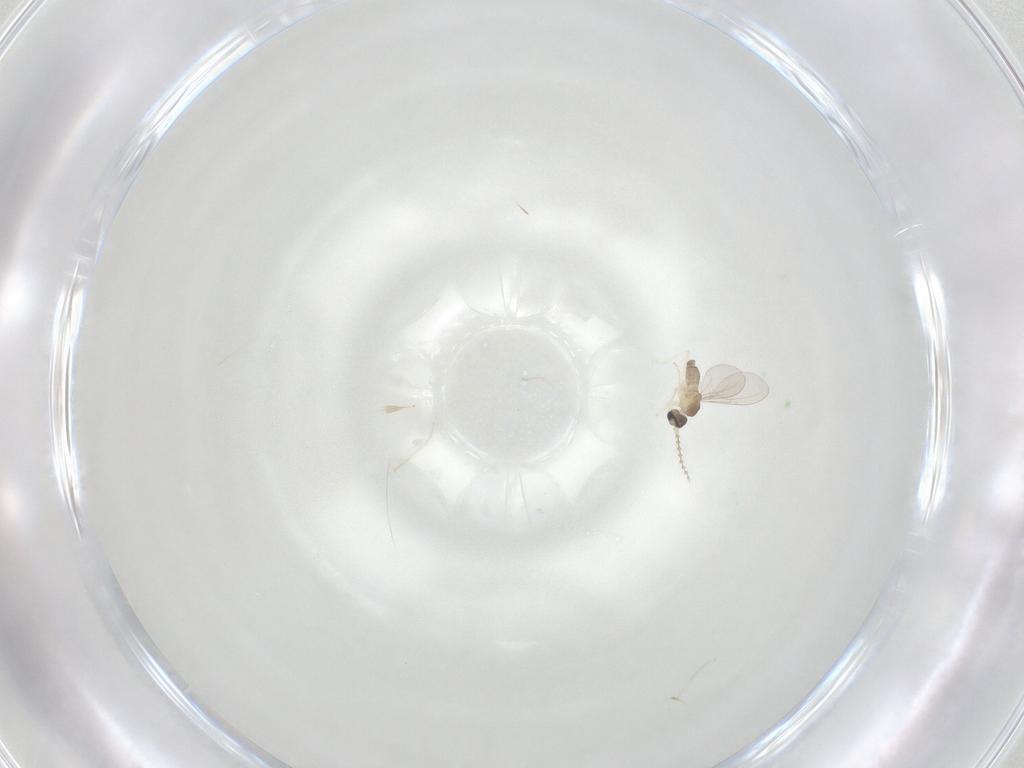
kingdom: Animalia
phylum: Arthropoda
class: Insecta
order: Diptera
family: Cecidomyiidae
